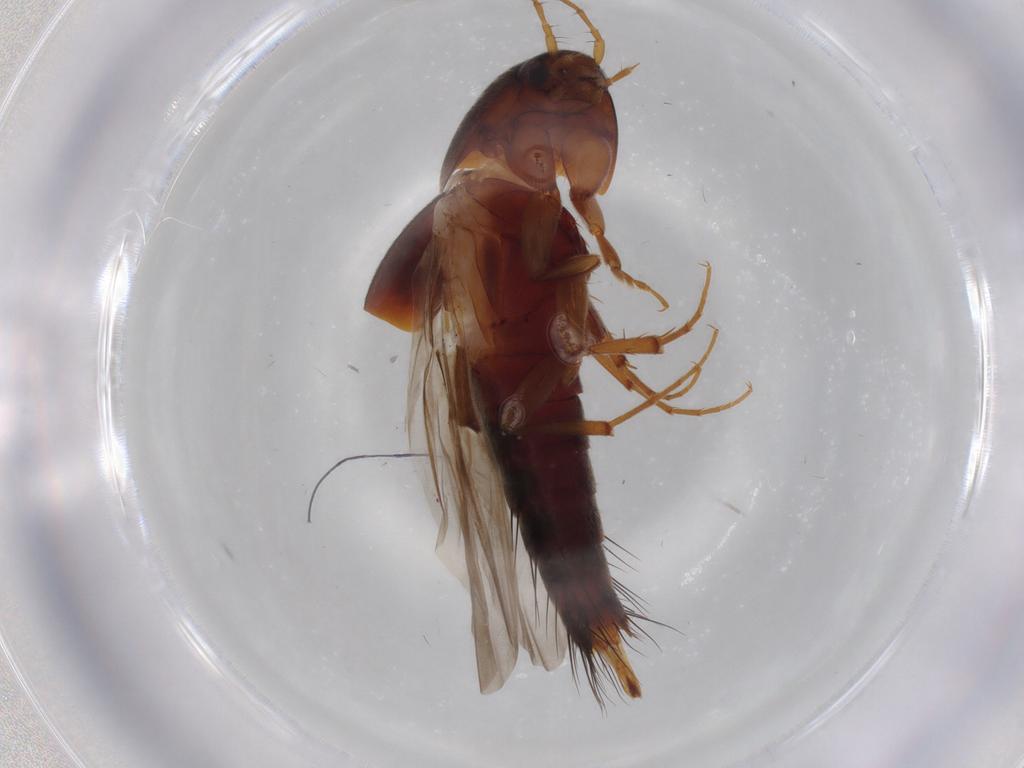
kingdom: Animalia
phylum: Arthropoda
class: Insecta
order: Coleoptera
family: Staphylinidae
